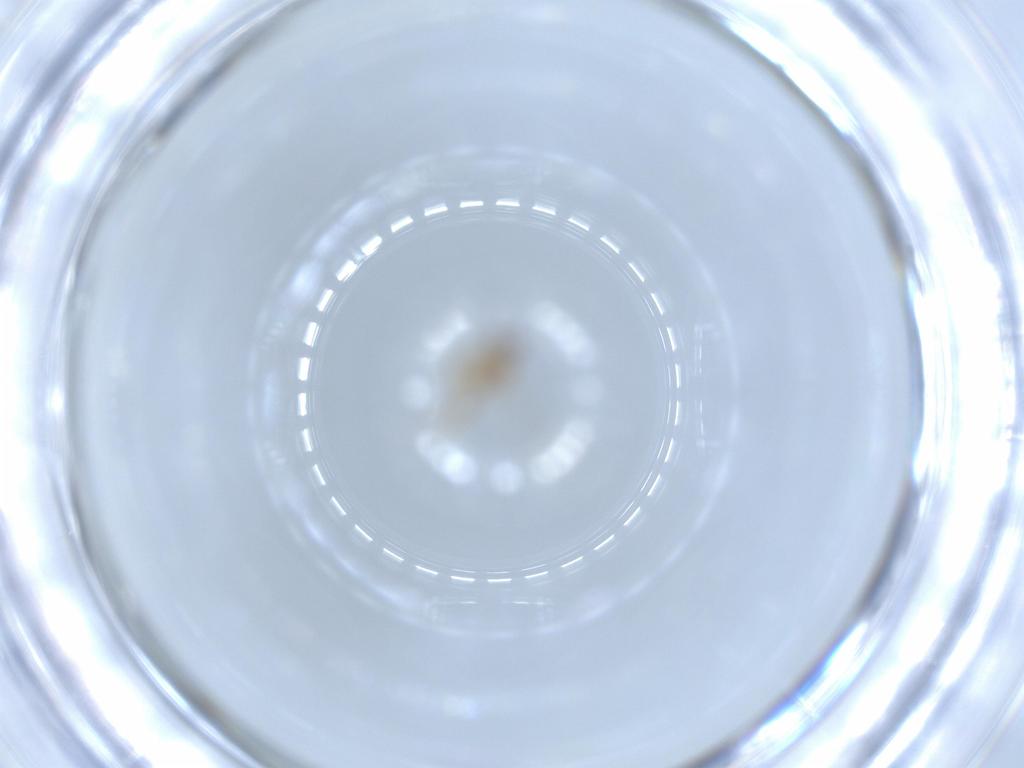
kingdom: Animalia
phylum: Arthropoda
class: Insecta
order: Diptera
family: Cecidomyiidae
